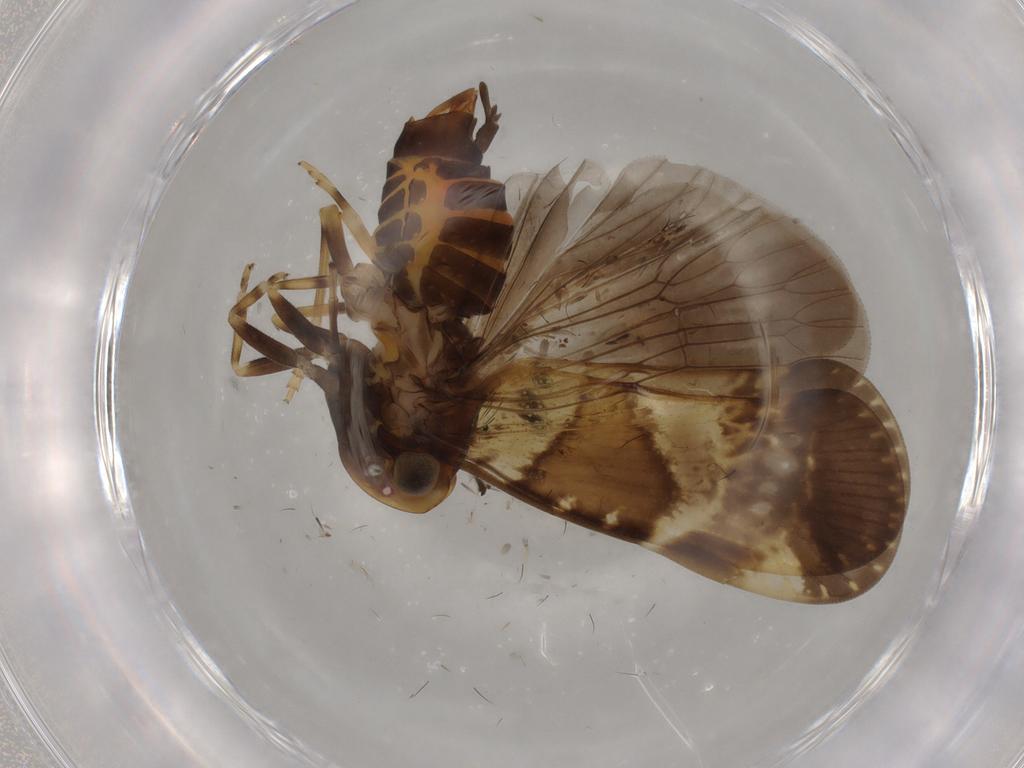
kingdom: Animalia
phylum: Arthropoda
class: Insecta
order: Hemiptera
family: Cixiidae
